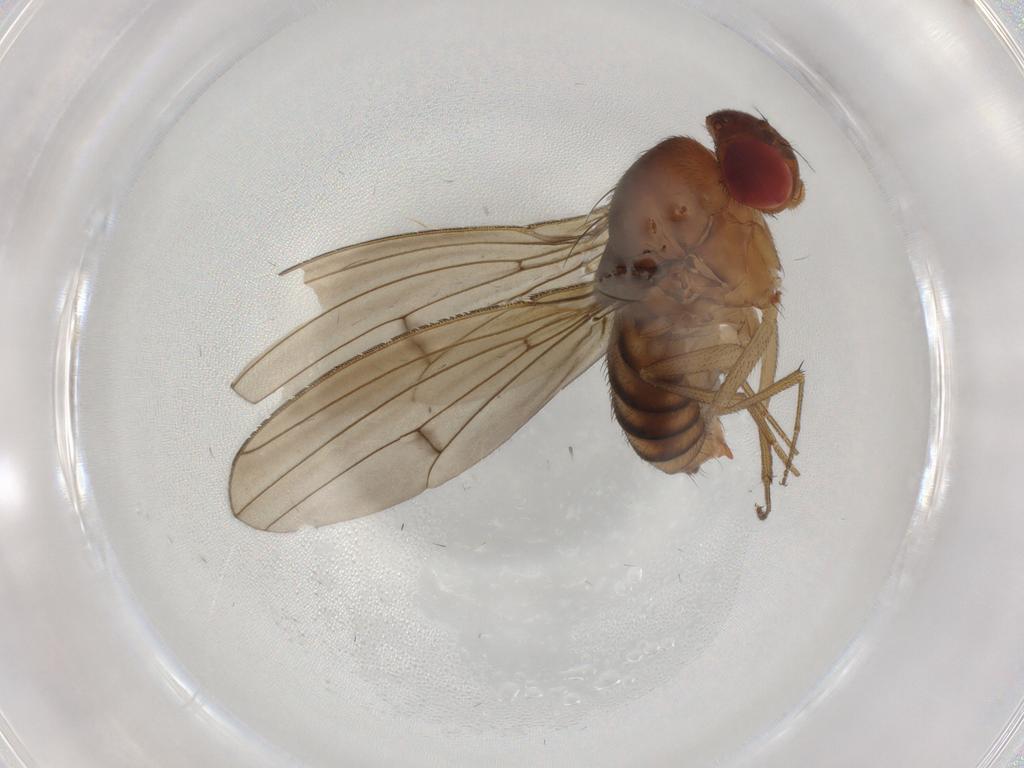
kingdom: Animalia
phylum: Arthropoda
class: Insecta
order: Diptera
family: Drosophilidae
